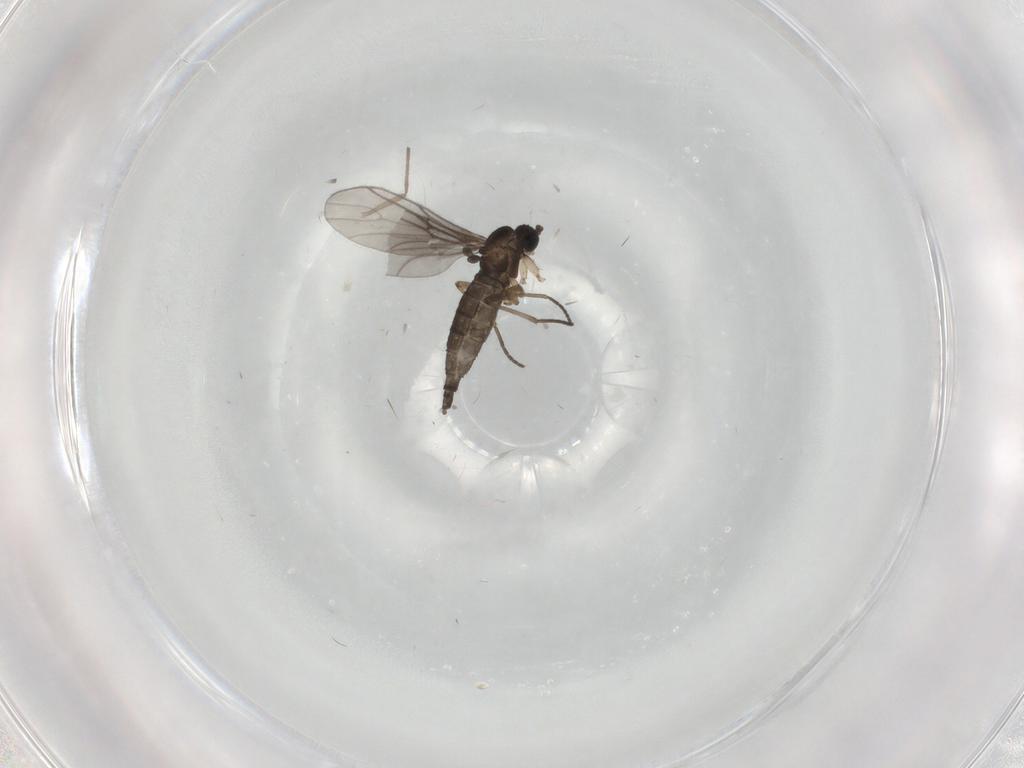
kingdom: Animalia
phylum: Arthropoda
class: Insecta
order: Diptera
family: Sciaridae
